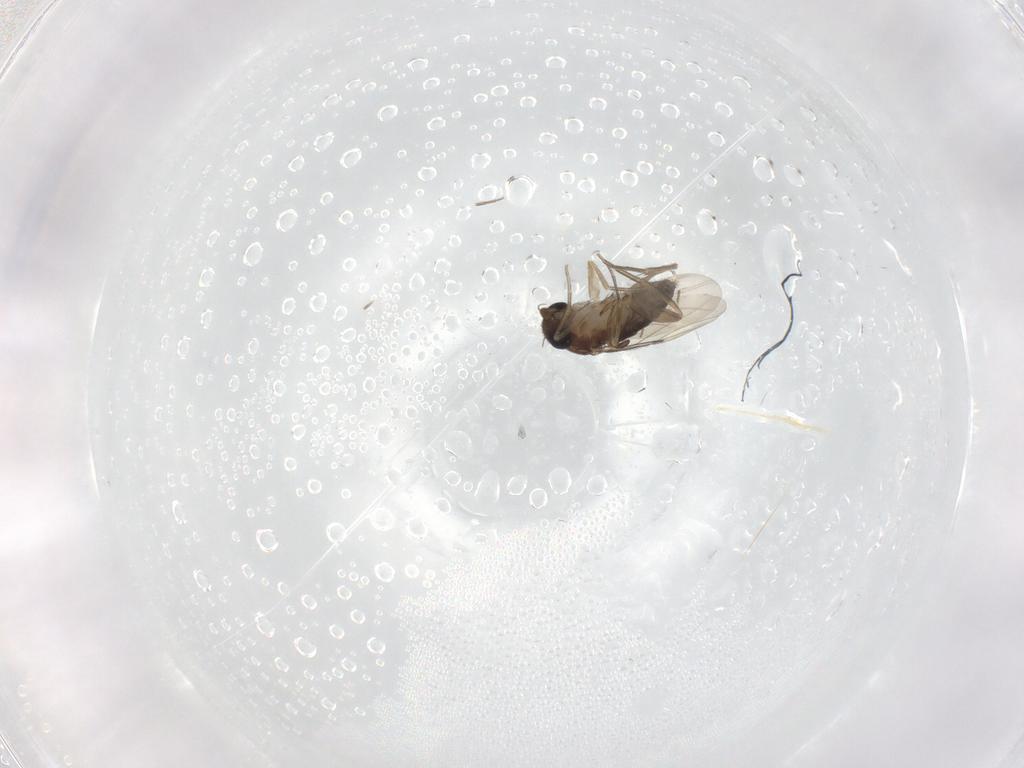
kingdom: Animalia
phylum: Arthropoda
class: Insecta
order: Diptera
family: Phoridae
